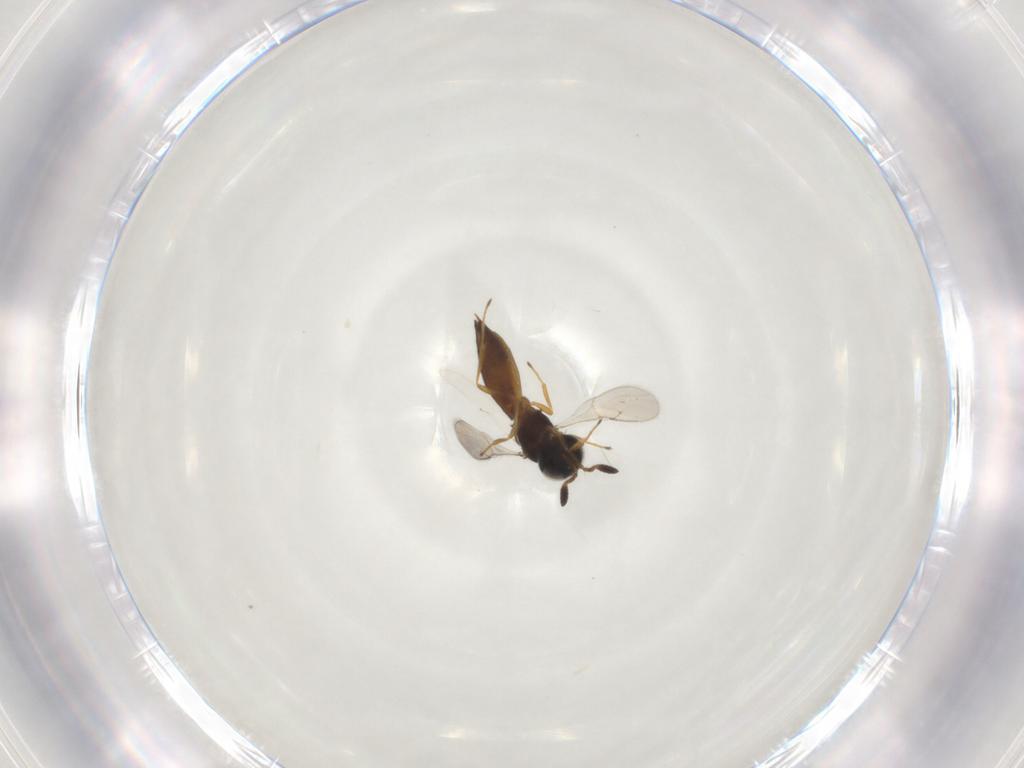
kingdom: Animalia
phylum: Arthropoda
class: Insecta
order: Diptera
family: Ceratopogonidae
